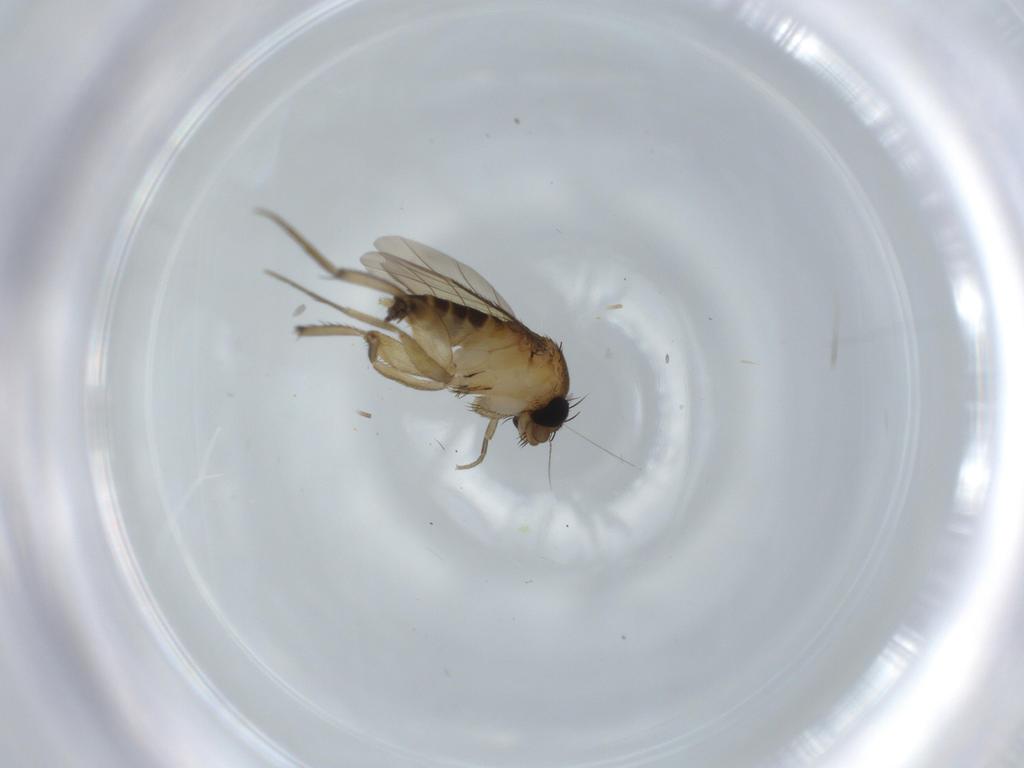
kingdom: Animalia
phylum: Arthropoda
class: Insecta
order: Diptera
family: Phoridae
